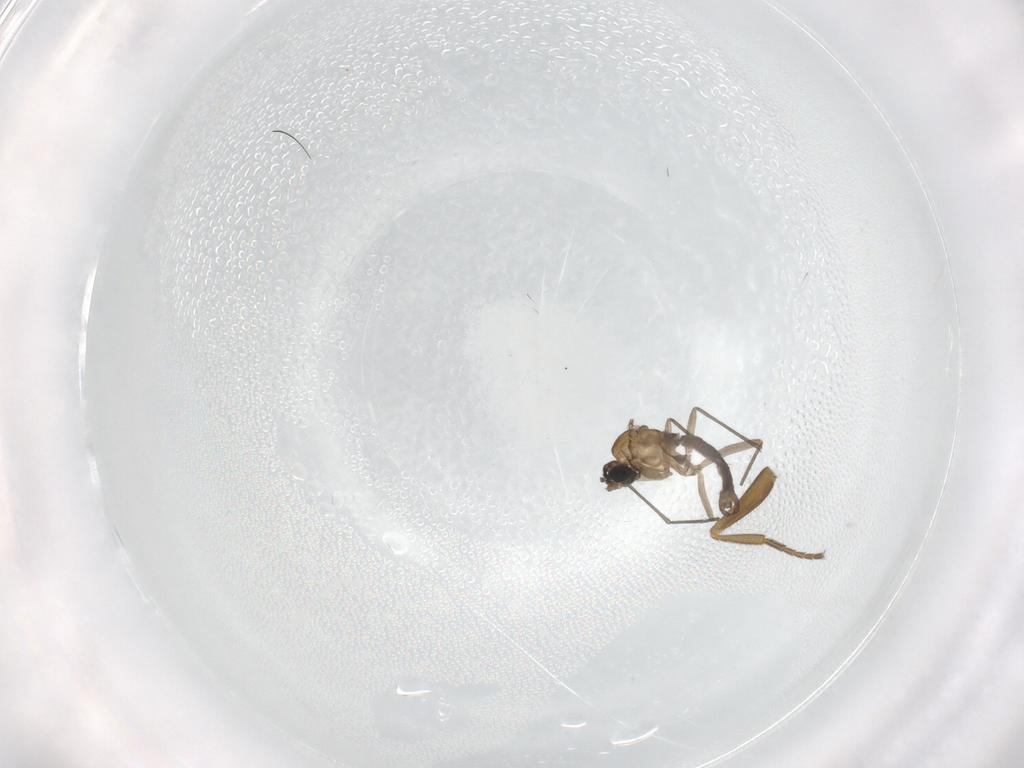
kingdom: Animalia
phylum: Arthropoda
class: Insecta
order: Diptera
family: Sciaridae
